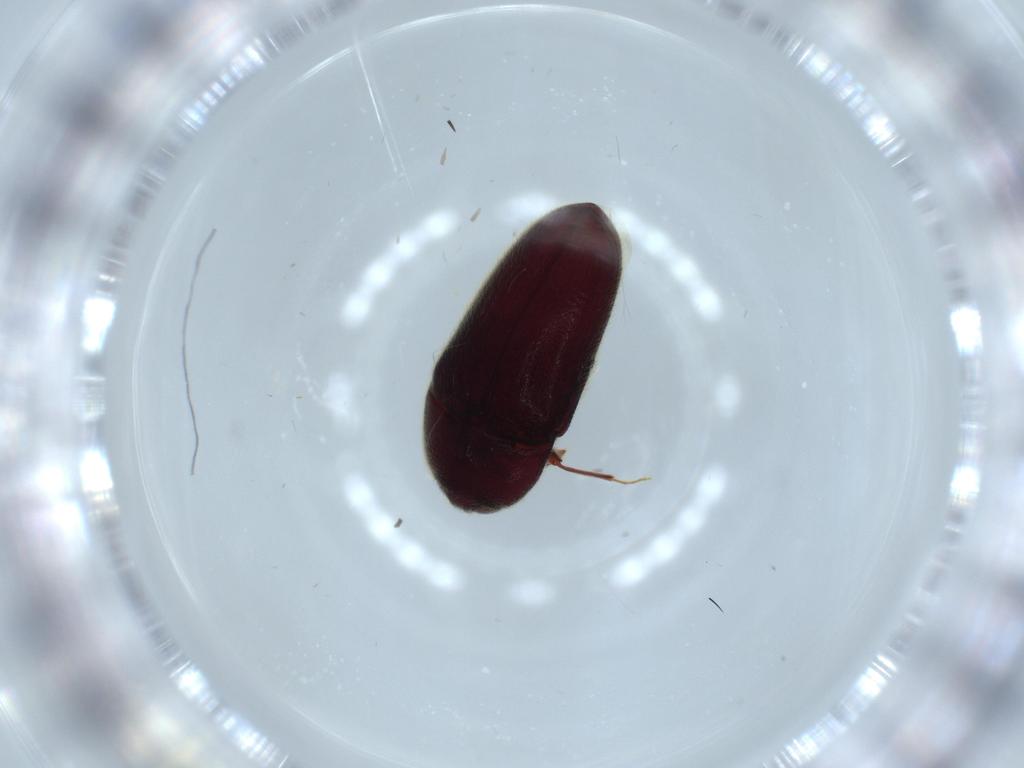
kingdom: Animalia
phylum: Arthropoda
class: Insecta
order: Coleoptera
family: Throscidae
